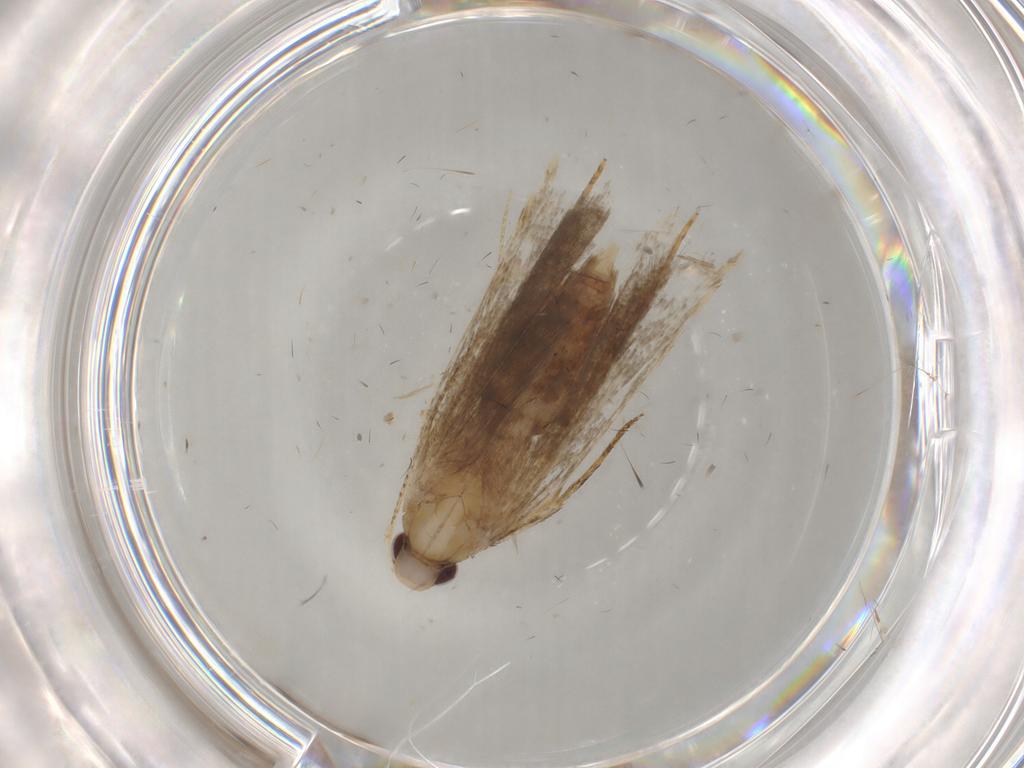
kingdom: Animalia
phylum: Arthropoda
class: Insecta
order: Lepidoptera
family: Gelechiidae
